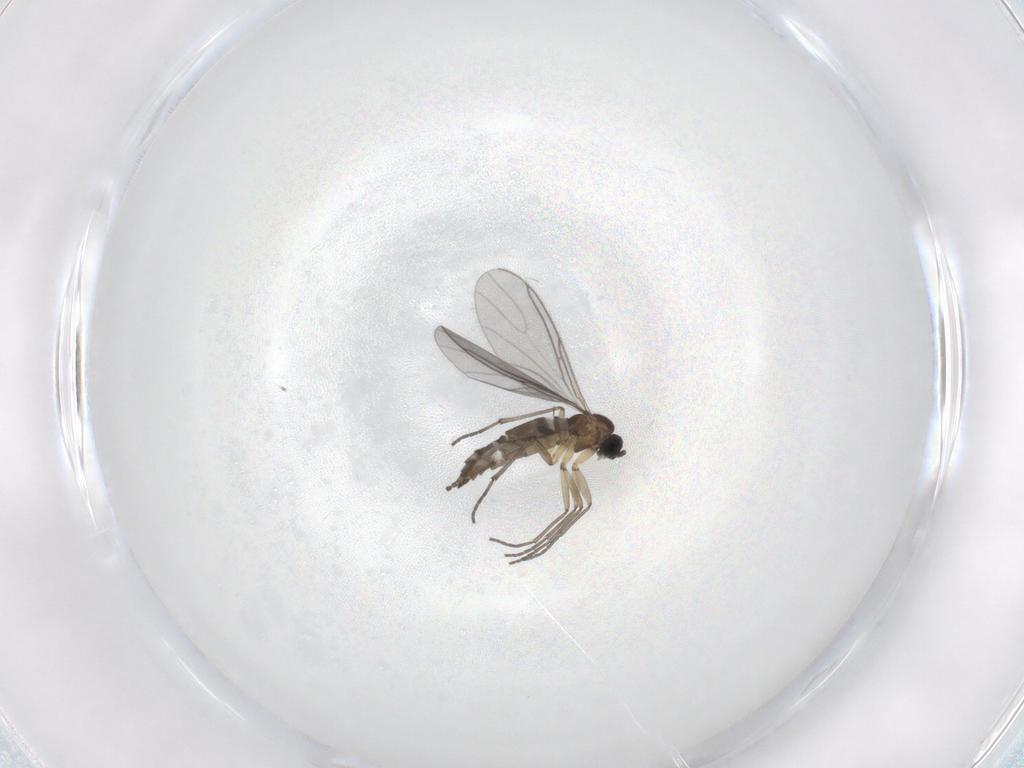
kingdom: Animalia
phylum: Arthropoda
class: Insecta
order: Diptera
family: Sciaridae
